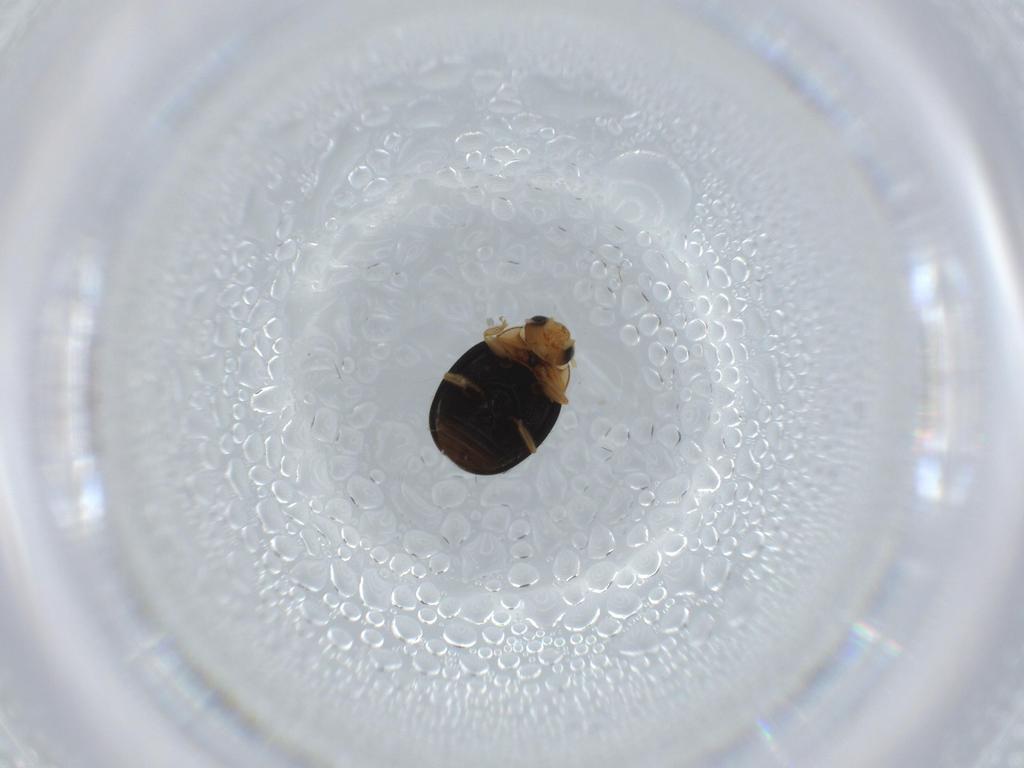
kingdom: Animalia
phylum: Arthropoda
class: Insecta
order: Coleoptera
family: Dermestidae
